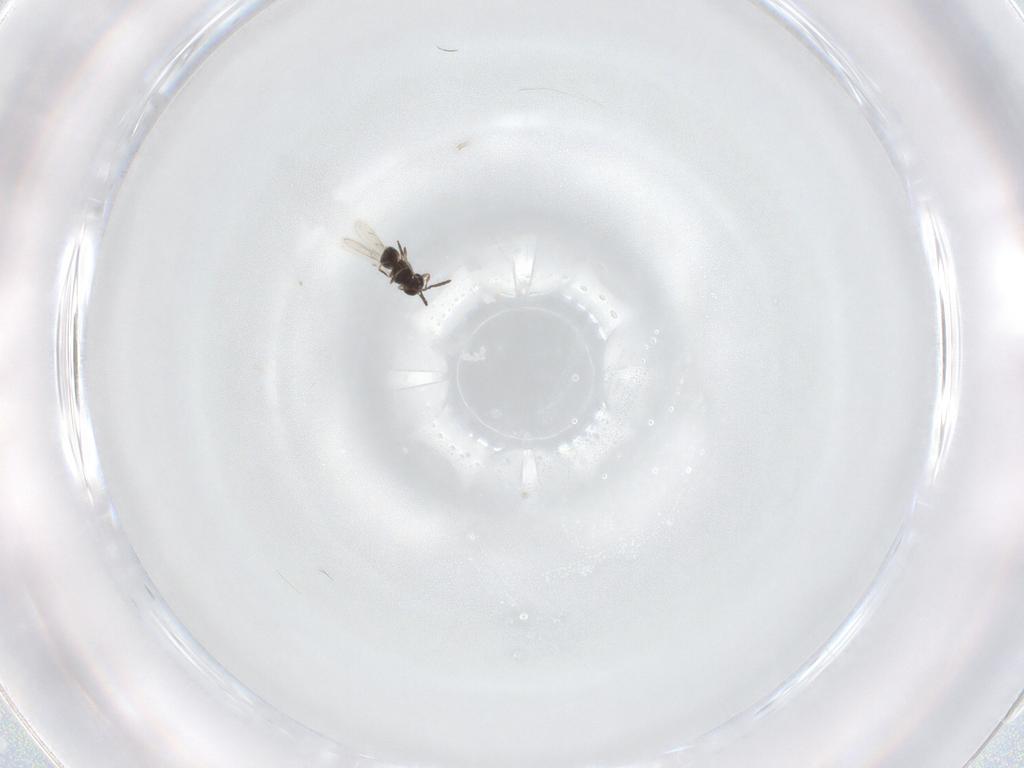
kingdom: Animalia
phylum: Arthropoda
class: Insecta
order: Hymenoptera
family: Scelionidae
